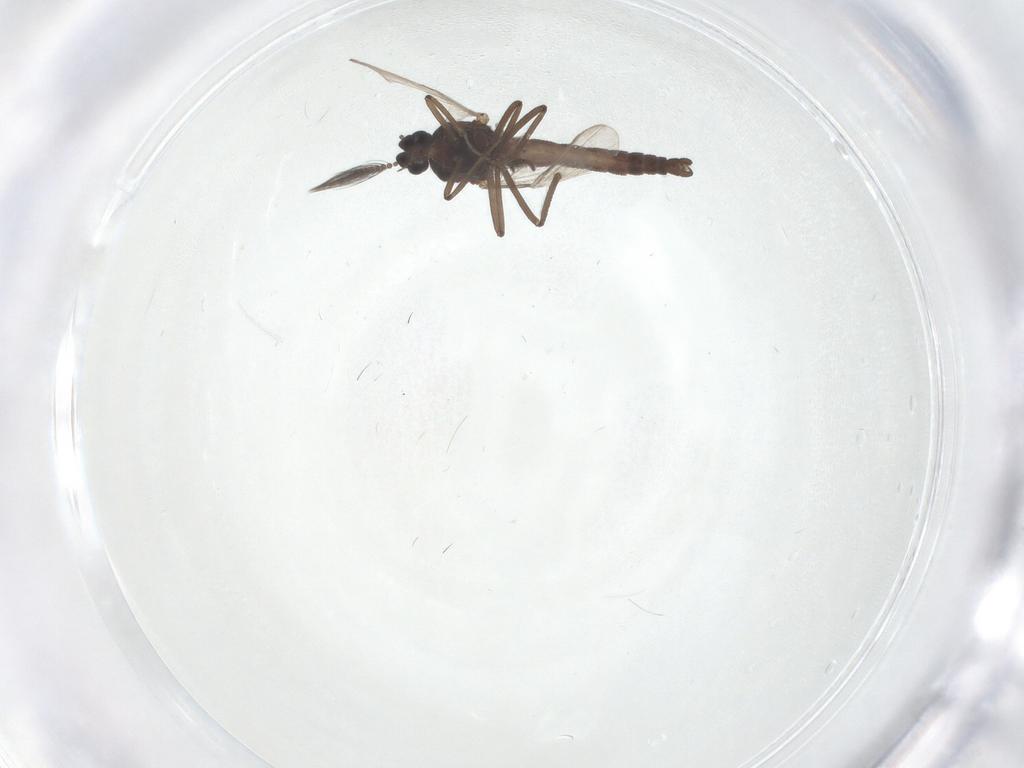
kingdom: Animalia
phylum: Arthropoda
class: Insecta
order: Diptera
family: Ceratopogonidae
